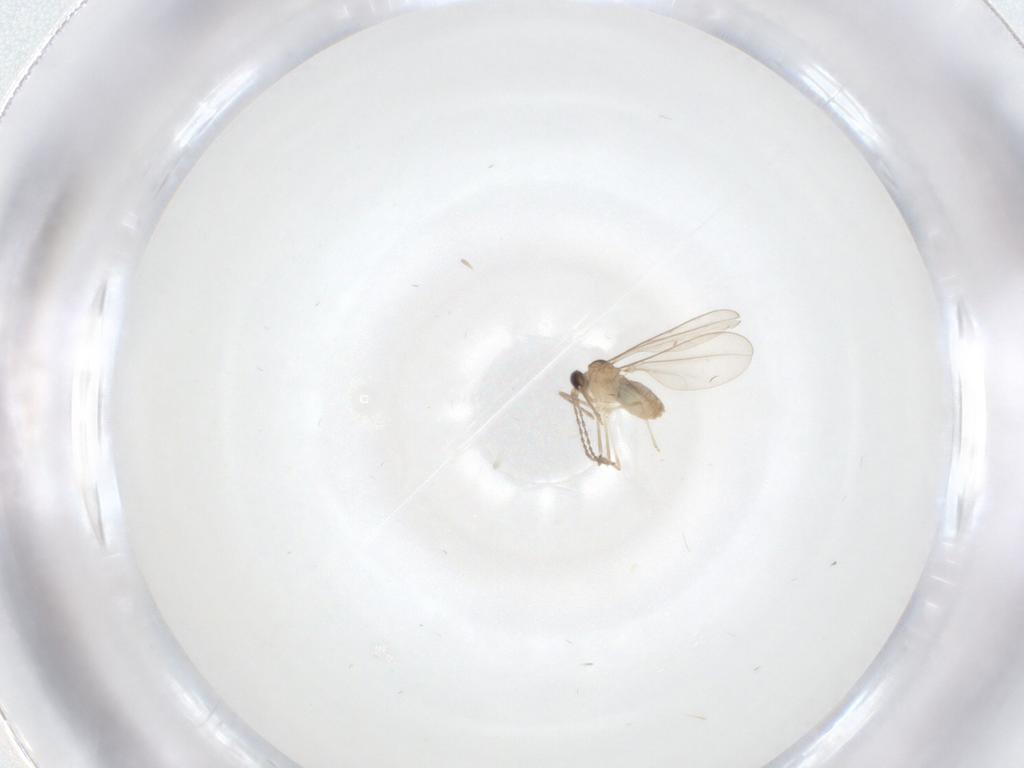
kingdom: Animalia
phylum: Arthropoda
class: Insecta
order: Diptera
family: Cecidomyiidae
